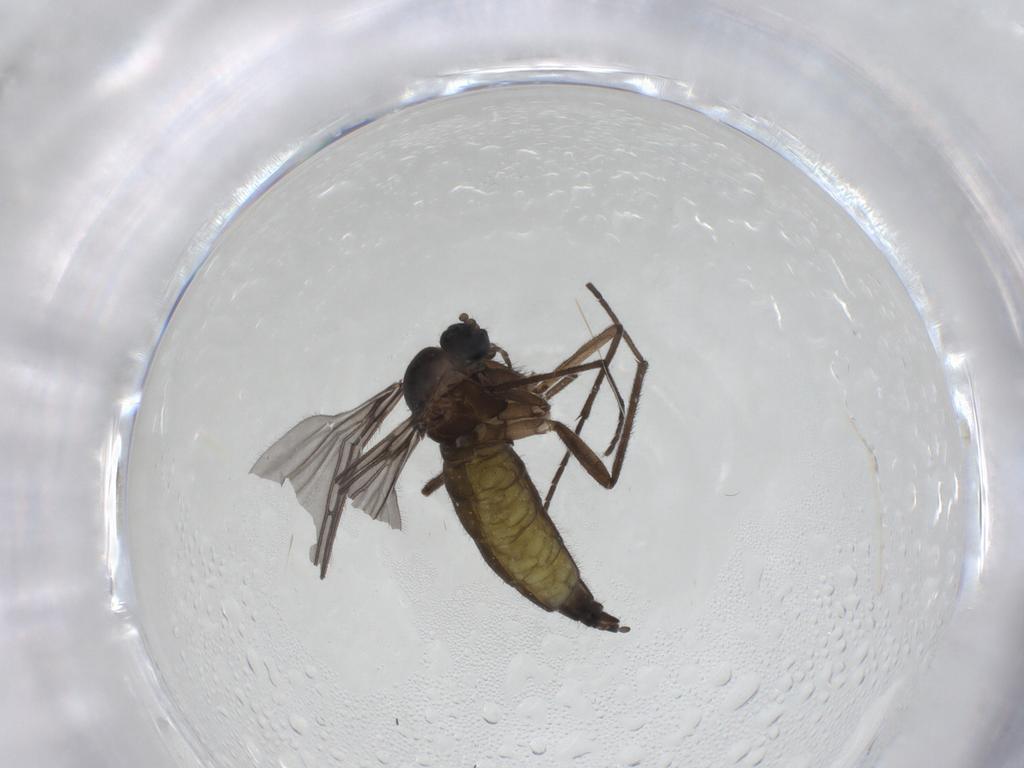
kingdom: Animalia
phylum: Arthropoda
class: Insecta
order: Diptera
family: Sciaridae
